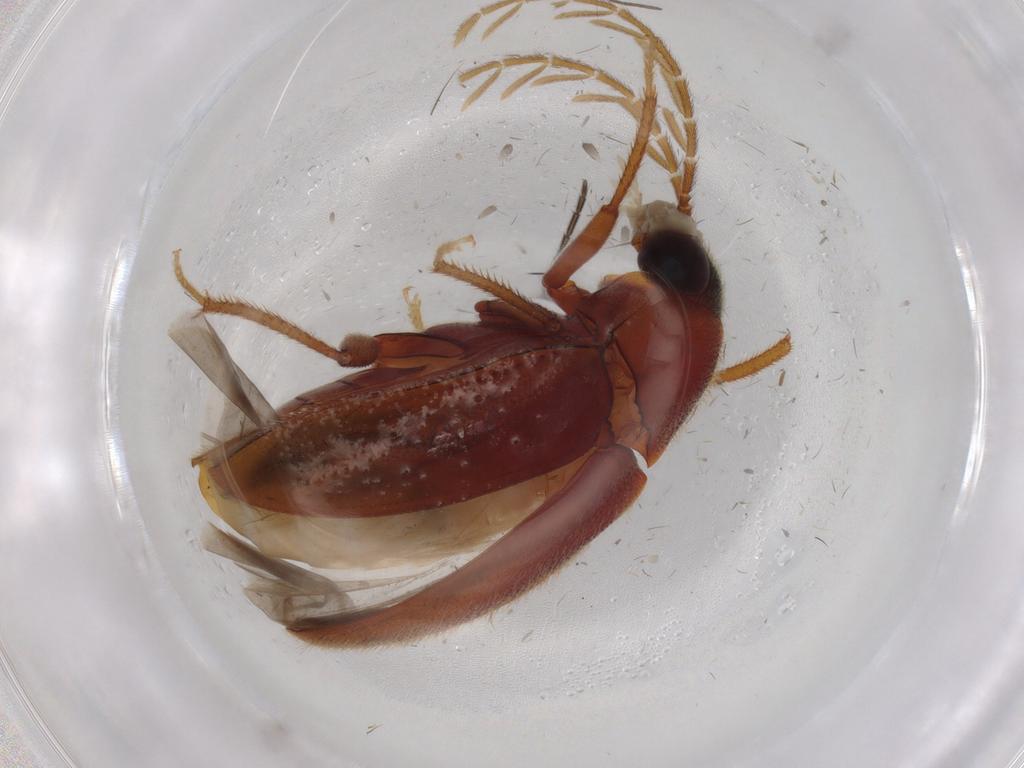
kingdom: Animalia
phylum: Arthropoda
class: Insecta
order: Coleoptera
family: Ptilodactylidae
